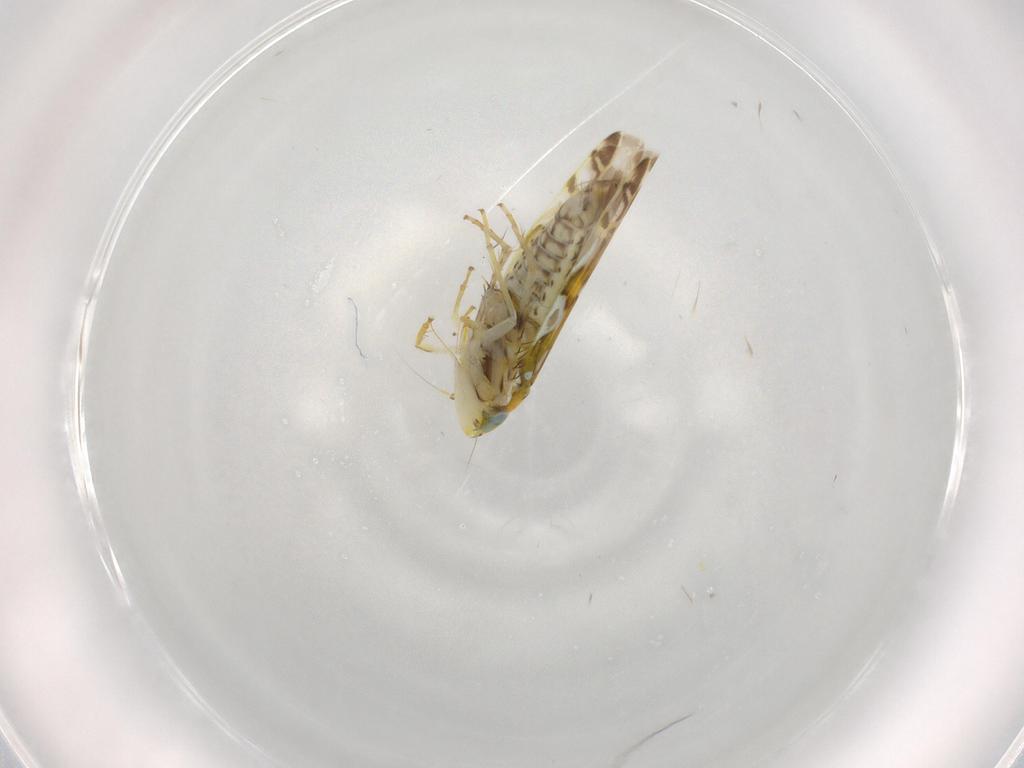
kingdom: Animalia
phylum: Arthropoda
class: Insecta
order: Hemiptera
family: Cicadellidae
